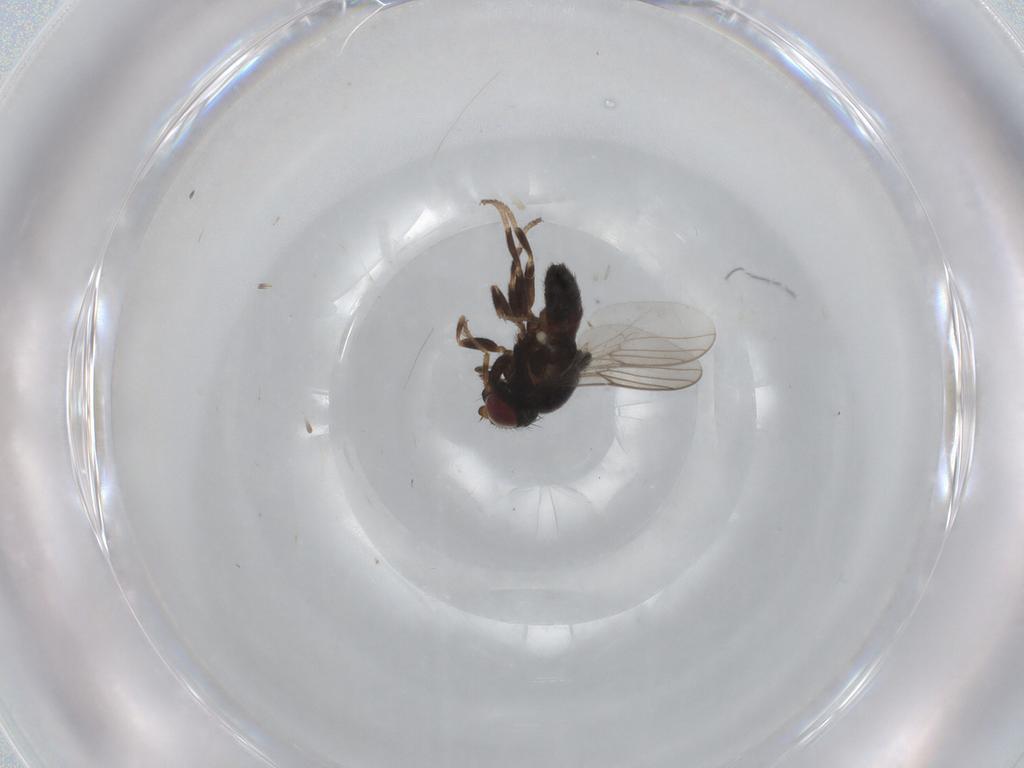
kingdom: Animalia
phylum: Arthropoda
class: Insecta
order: Diptera
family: Chloropidae
